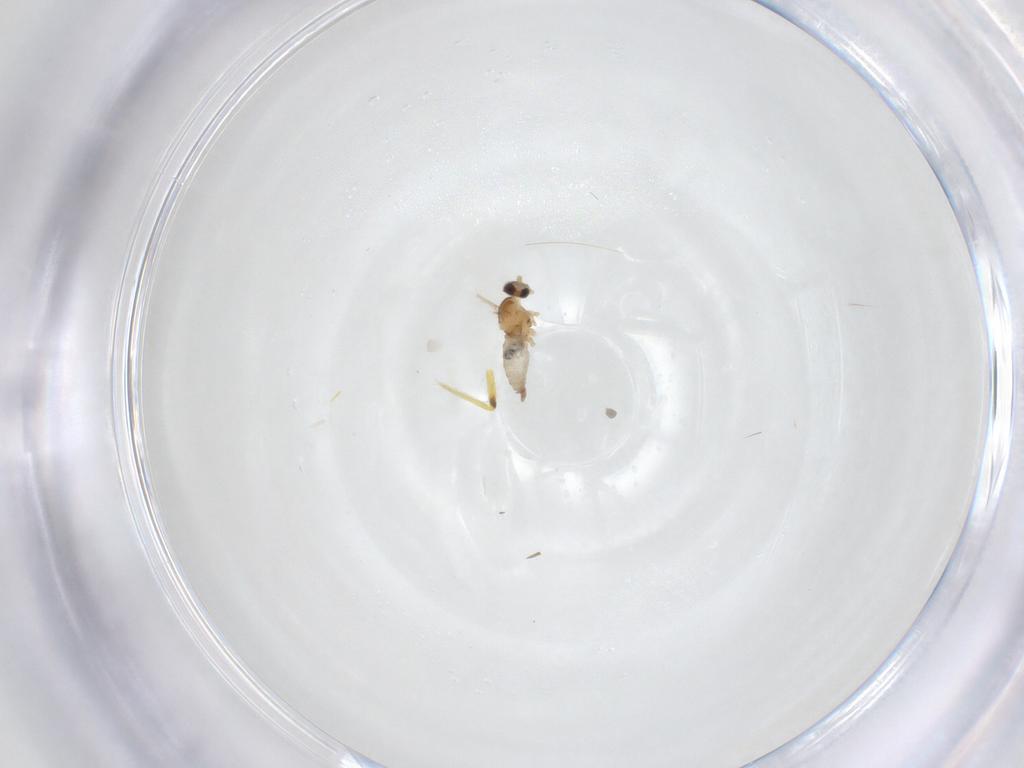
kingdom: Animalia
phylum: Arthropoda
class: Insecta
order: Diptera
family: Cecidomyiidae
